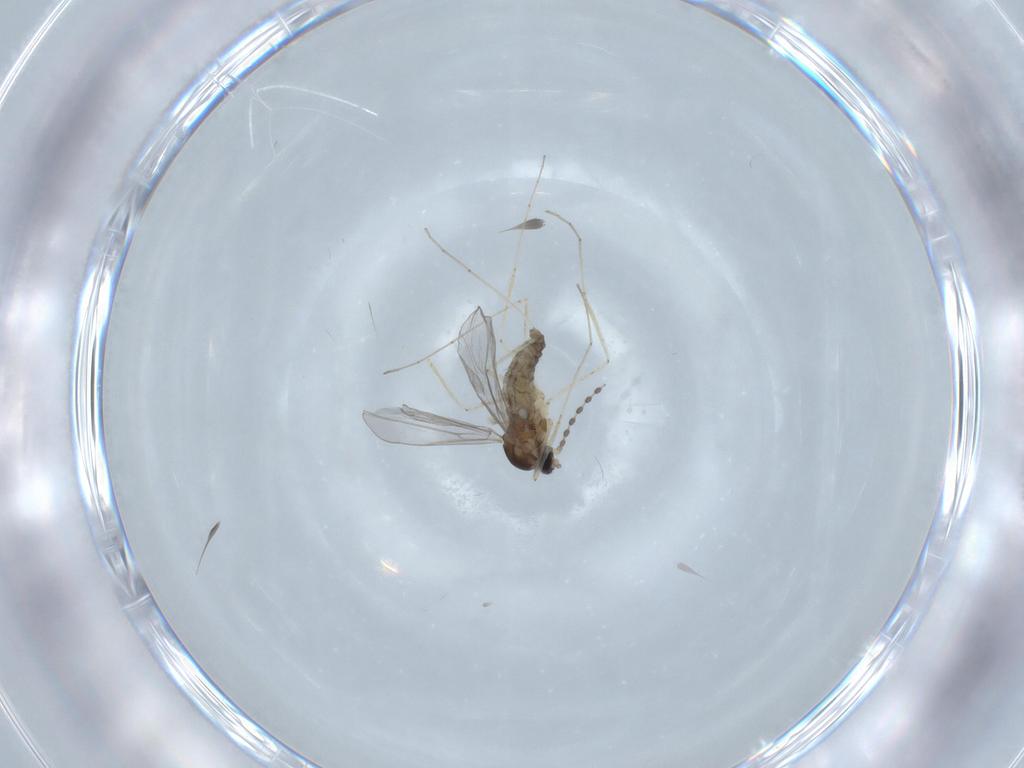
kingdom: Animalia
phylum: Arthropoda
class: Insecta
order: Diptera
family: Cecidomyiidae
